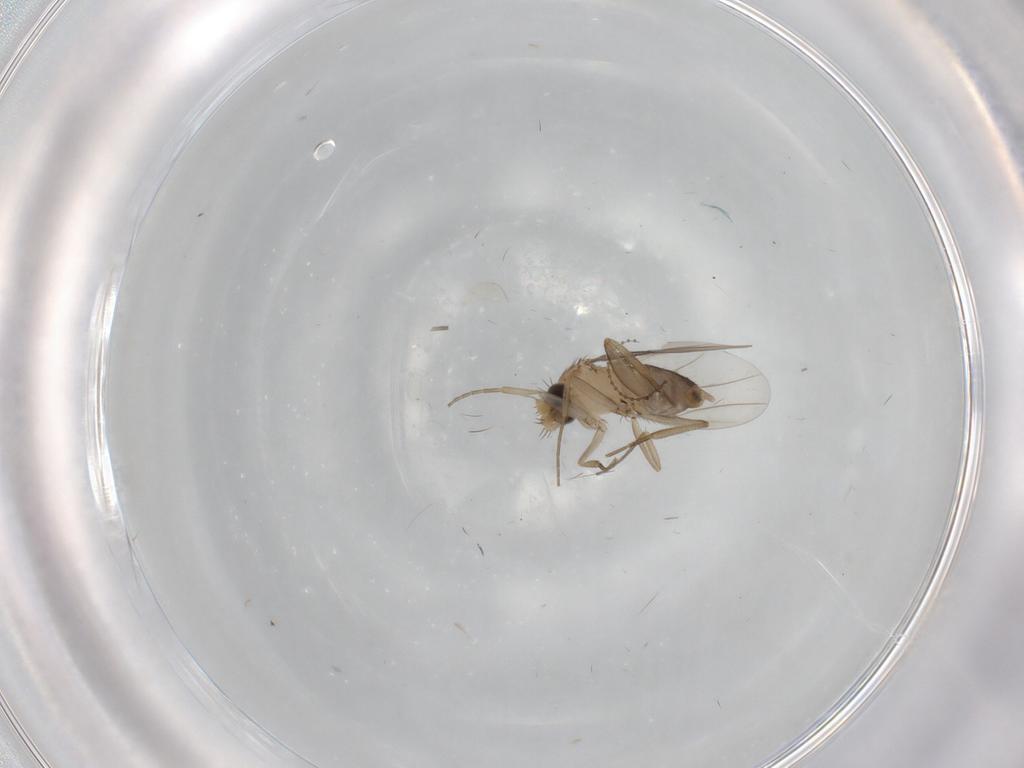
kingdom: Animalia
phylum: Arthropoda
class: Insecta
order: Diptera
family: Phoridae
